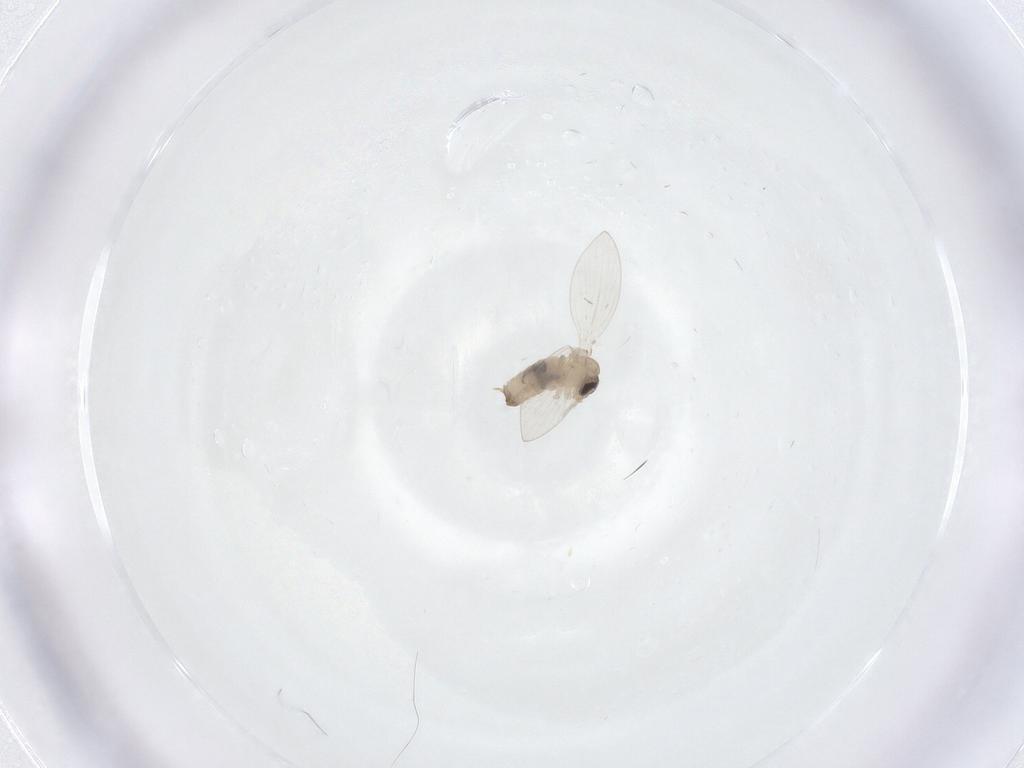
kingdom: Animalia
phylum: Arthropoda
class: Insecta
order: Diptera
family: Psychodidae
